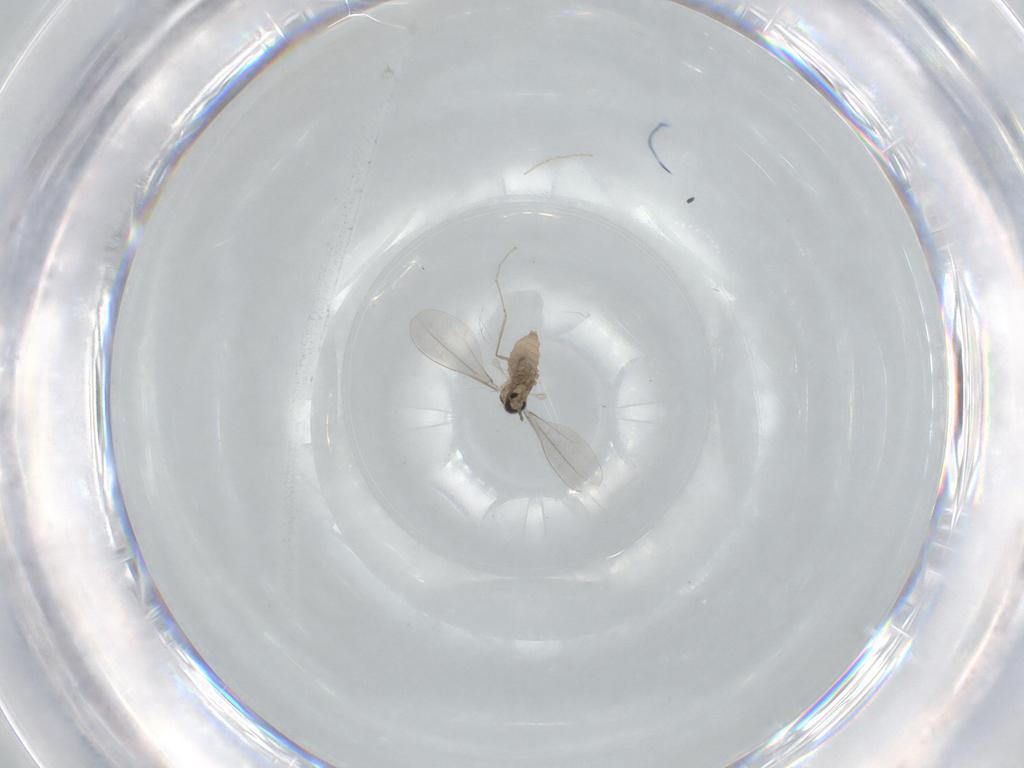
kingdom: Animalia
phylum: Arthropoda
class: Insecta
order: Diptera
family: Cecidomyiidae
